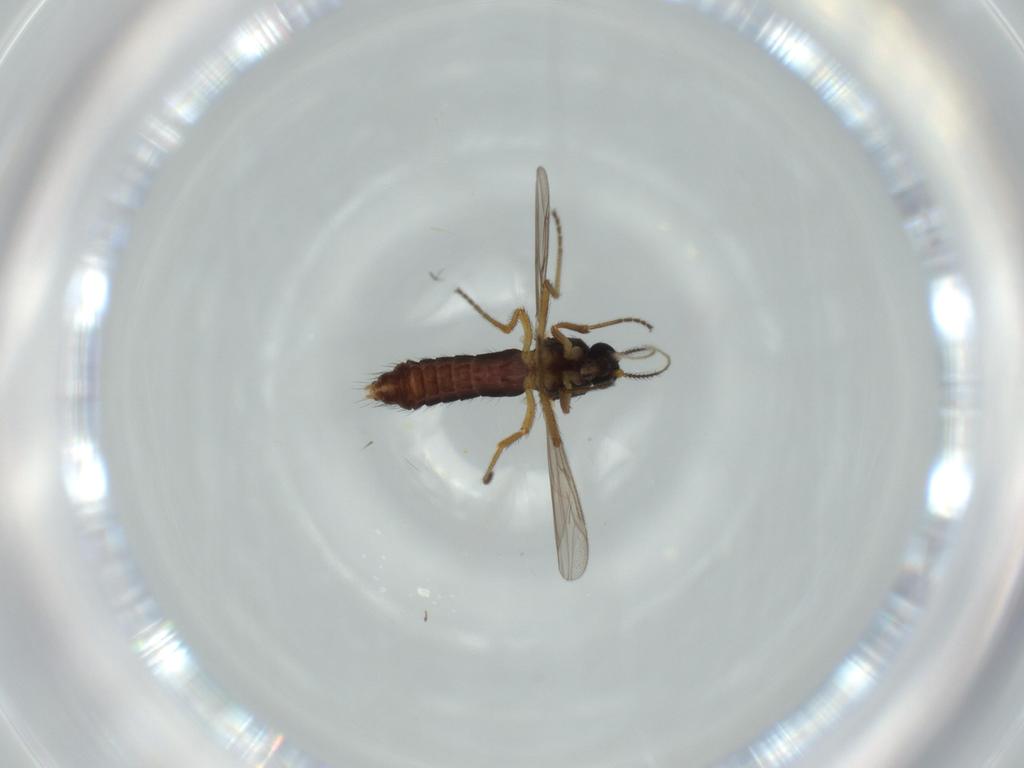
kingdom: Animalia
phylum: Arthropoda
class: Insecta
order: Diptera
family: Ceratopogonidae
